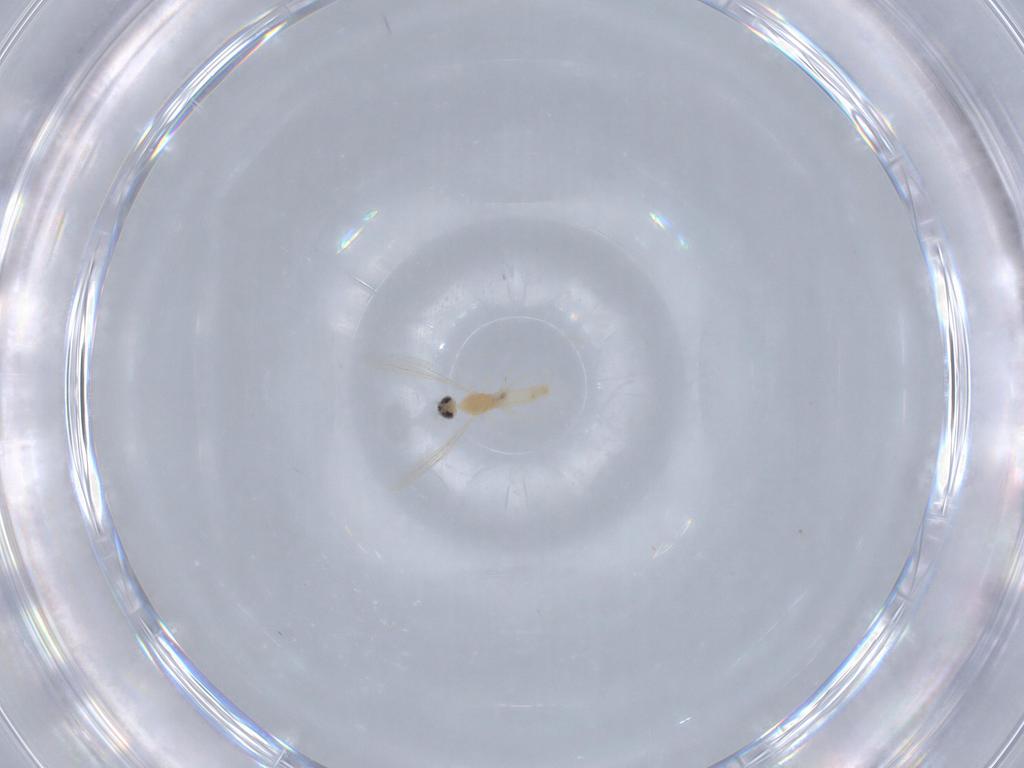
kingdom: Animalia
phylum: Arthropoda
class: Insecta
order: Diptera
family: Cecidomyiidae
